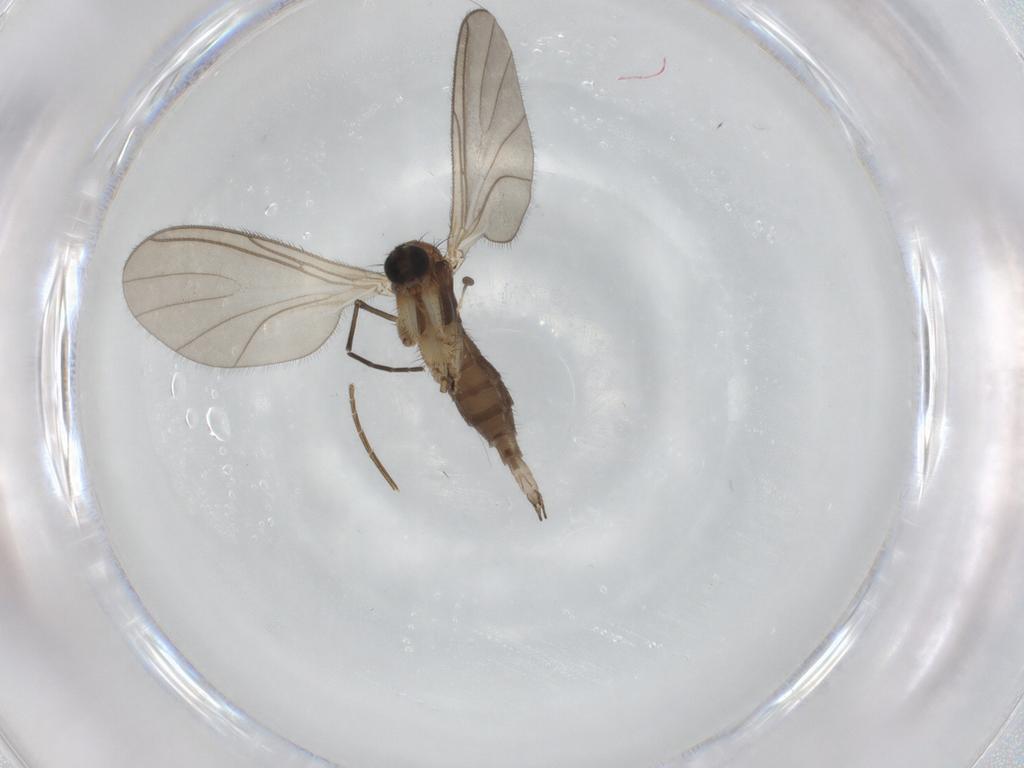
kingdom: Animalia
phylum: Arthropoda
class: Insecta
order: Diptera
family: Sciaridae
